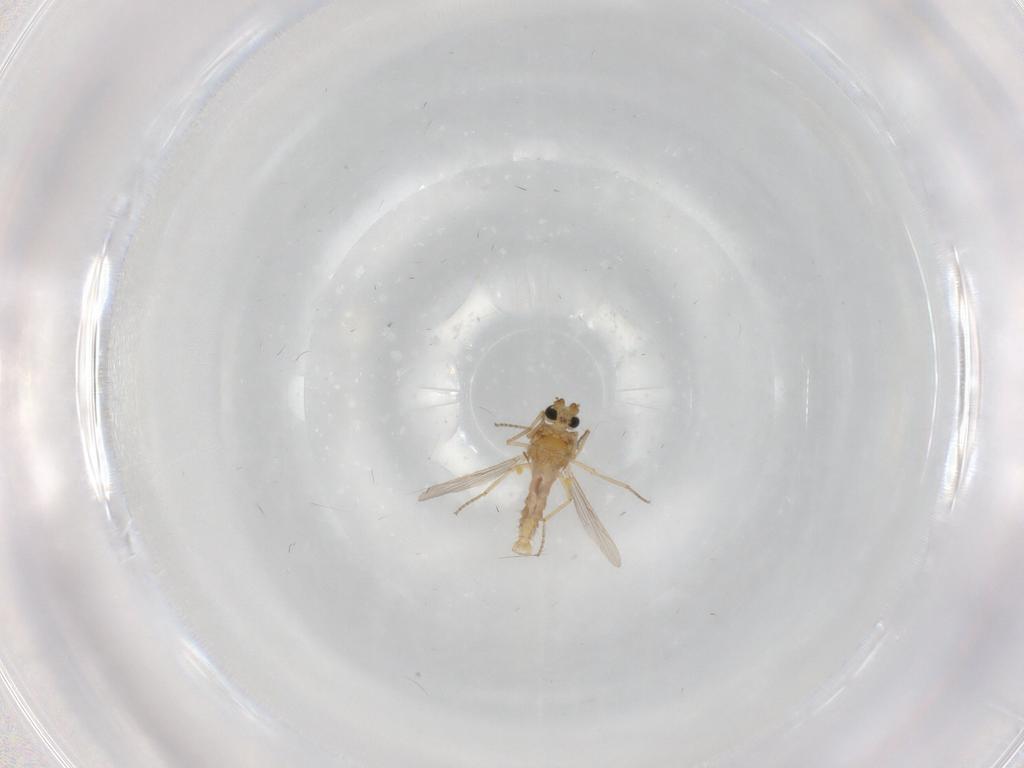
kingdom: Animalia
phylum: Arthropoda
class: Insecta
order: Diptera
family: Ceratopogonidae
